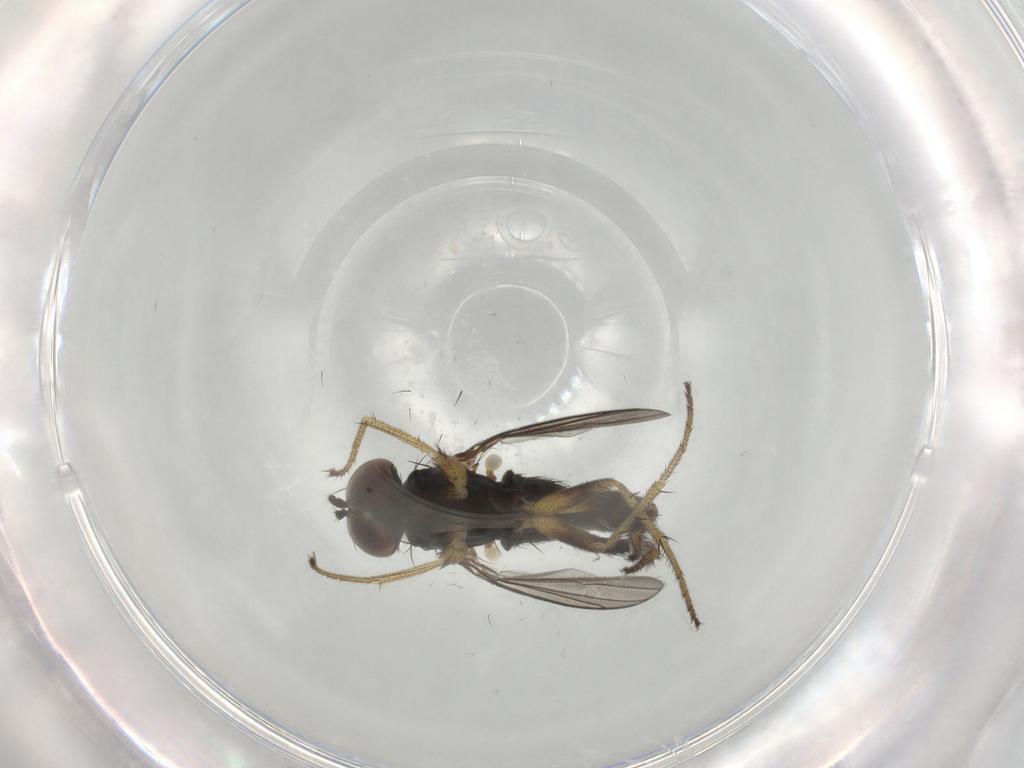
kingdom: Animalia
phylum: Arthropoda
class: Insecta
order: Diptera
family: Dolichopodidae
